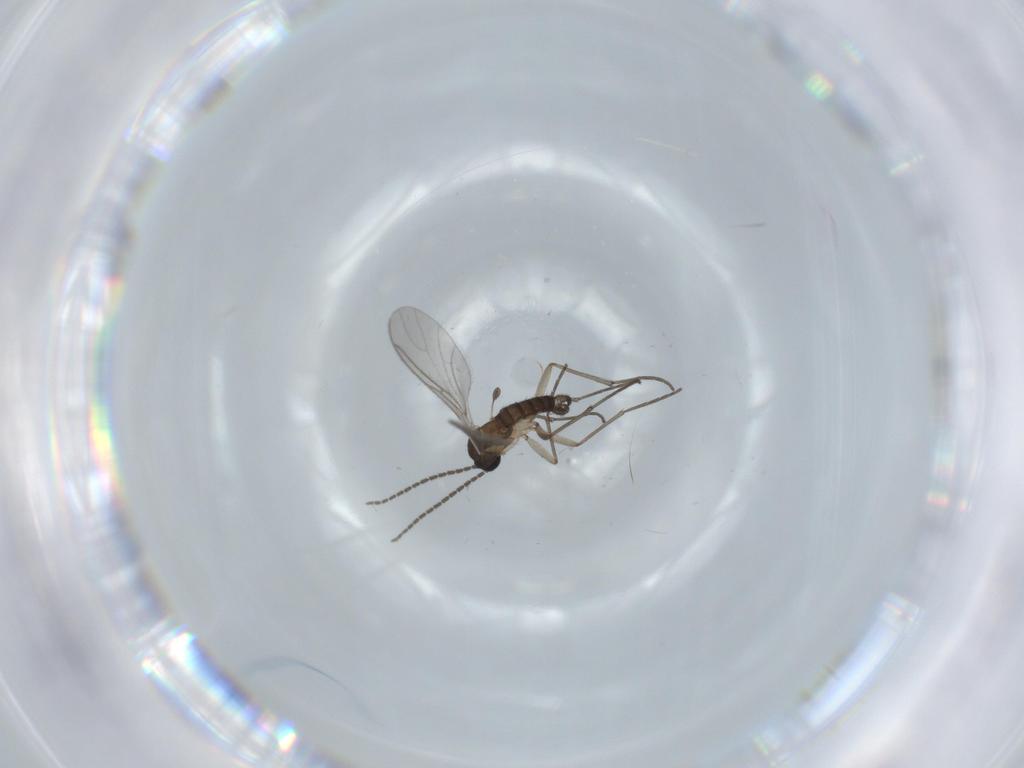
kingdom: Animalia
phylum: Arthropoda
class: Insecta
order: Diptera
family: Sciaridae
